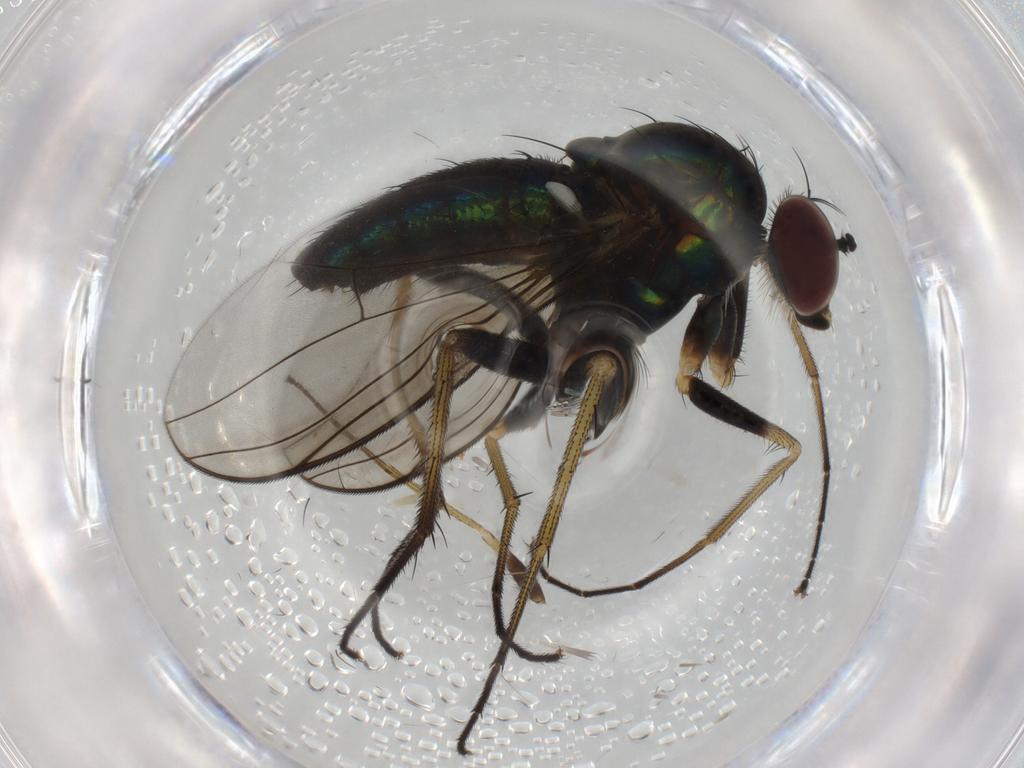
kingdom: Animalia
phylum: Arthropoda
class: Insecta
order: Diptera
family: Dolichopodidae
